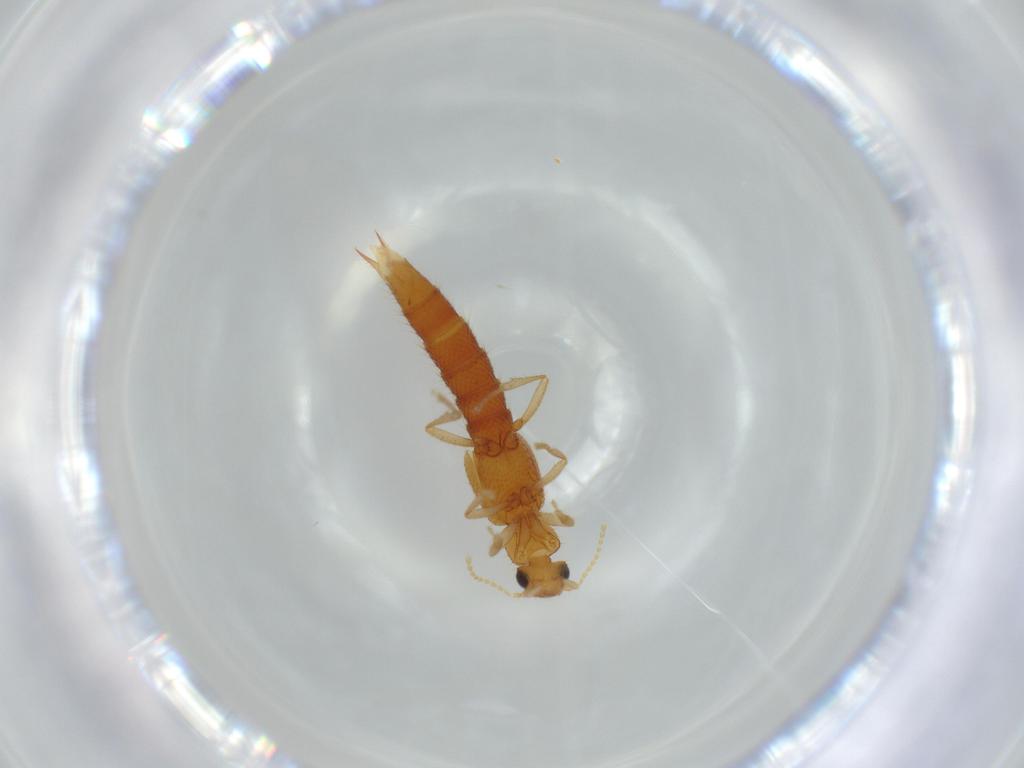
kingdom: Animalia
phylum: Arthropoda
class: Insecta
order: Coleoptera
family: Staphylinidae
